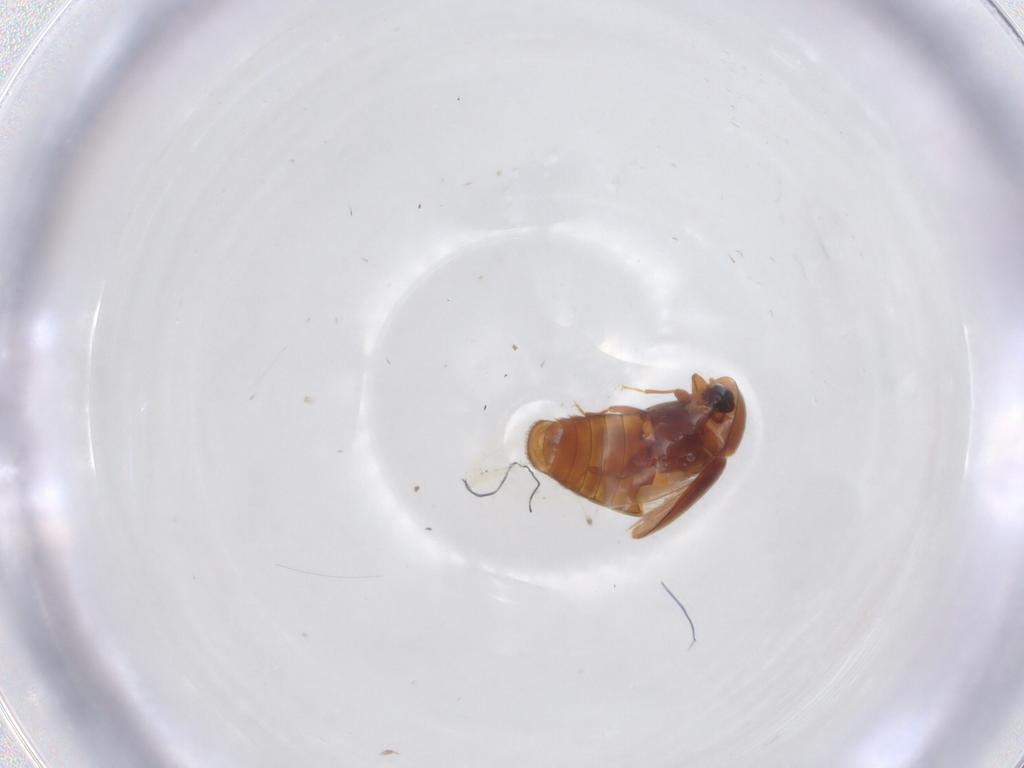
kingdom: Animalia
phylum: Arthropoda
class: Insecta
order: Coleoptera
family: Corylophidae
